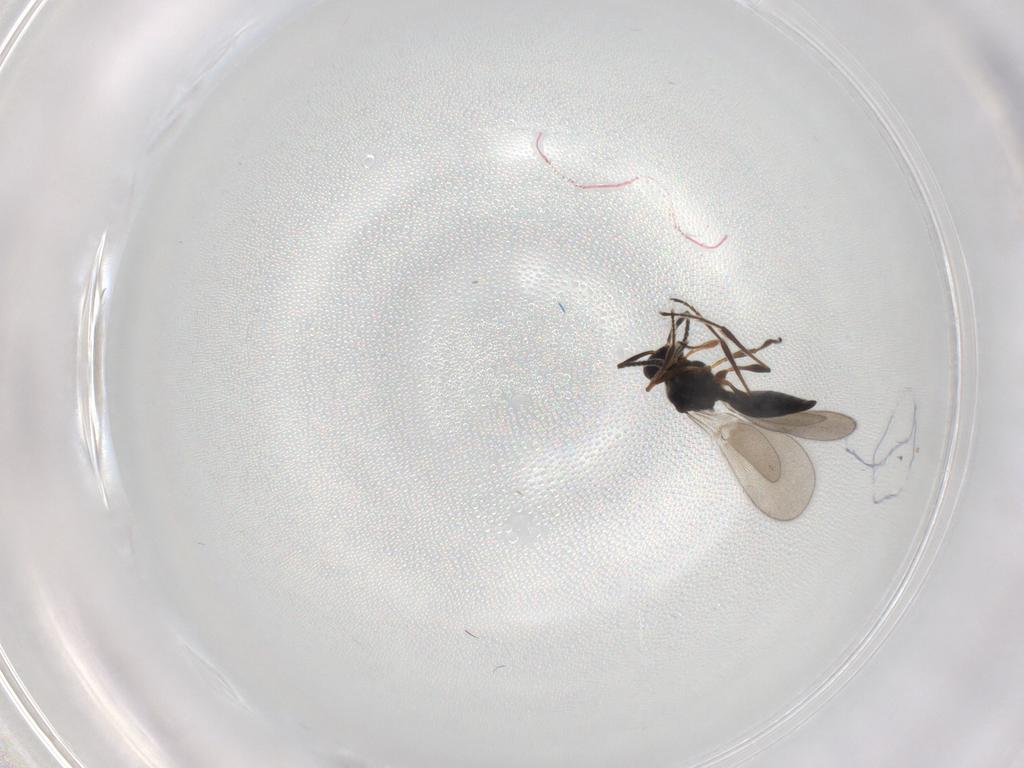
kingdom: Animalia
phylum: Arthropoda
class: Insecta
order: Hymenoptera
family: Platygastridae
